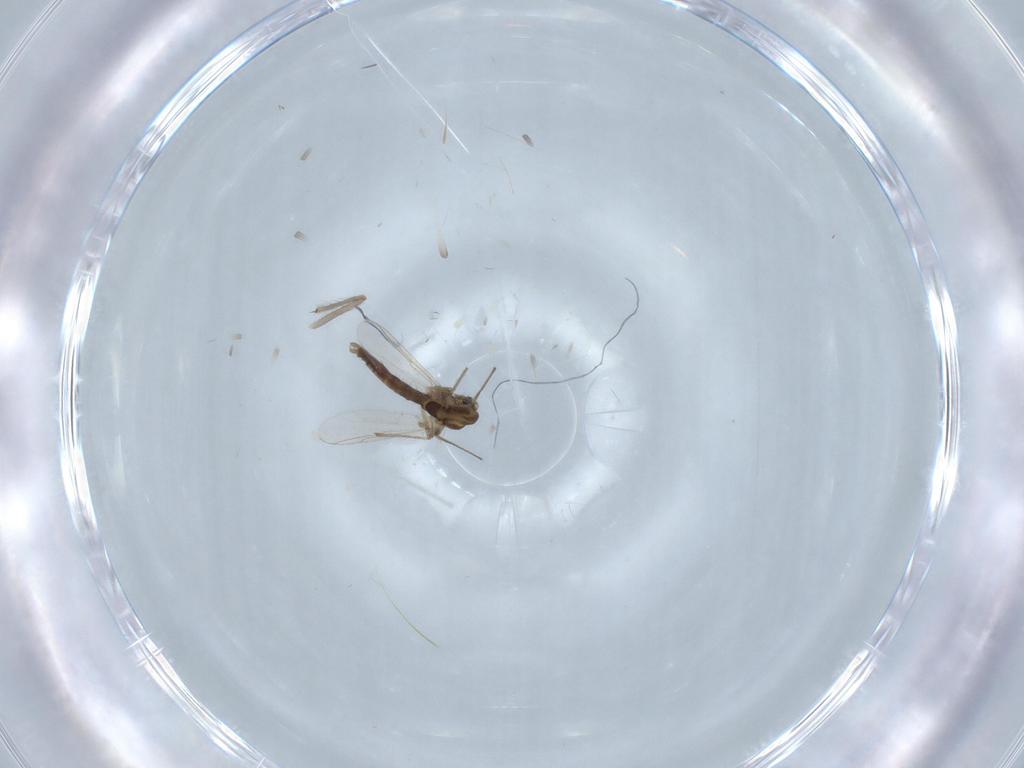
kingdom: Animalia
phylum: Arthropoda
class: Insecta
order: Diptera
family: Chironomidae
